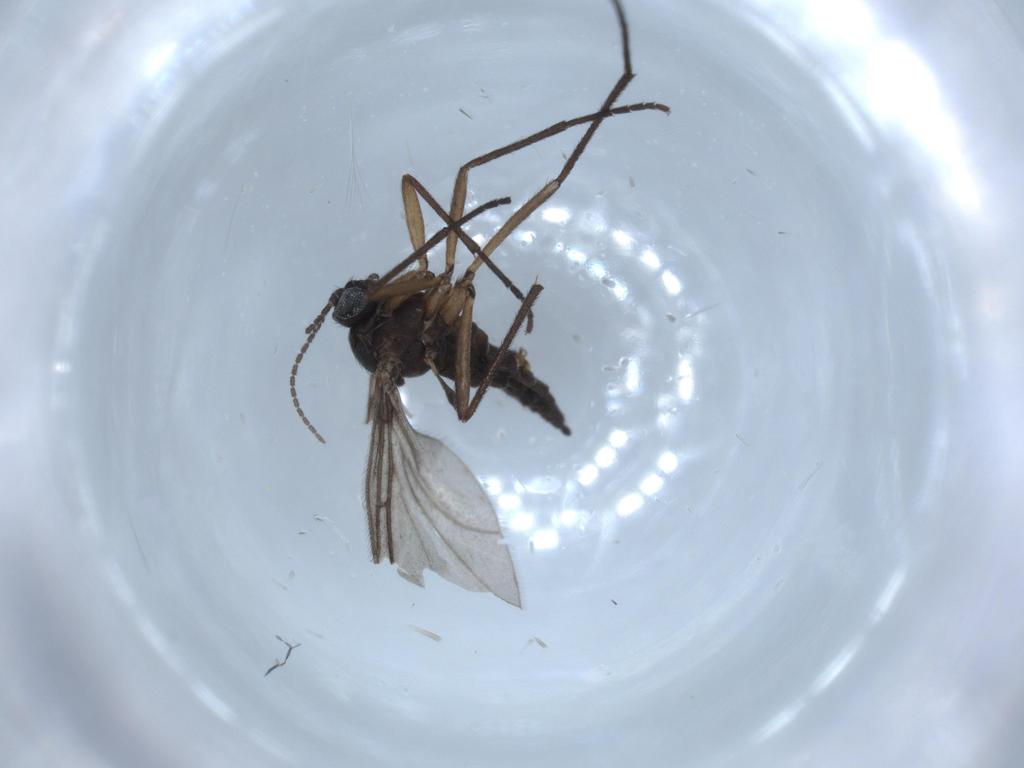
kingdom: Animalia
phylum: Arthropoda
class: Insecta
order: Diptera
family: Sciaridae
